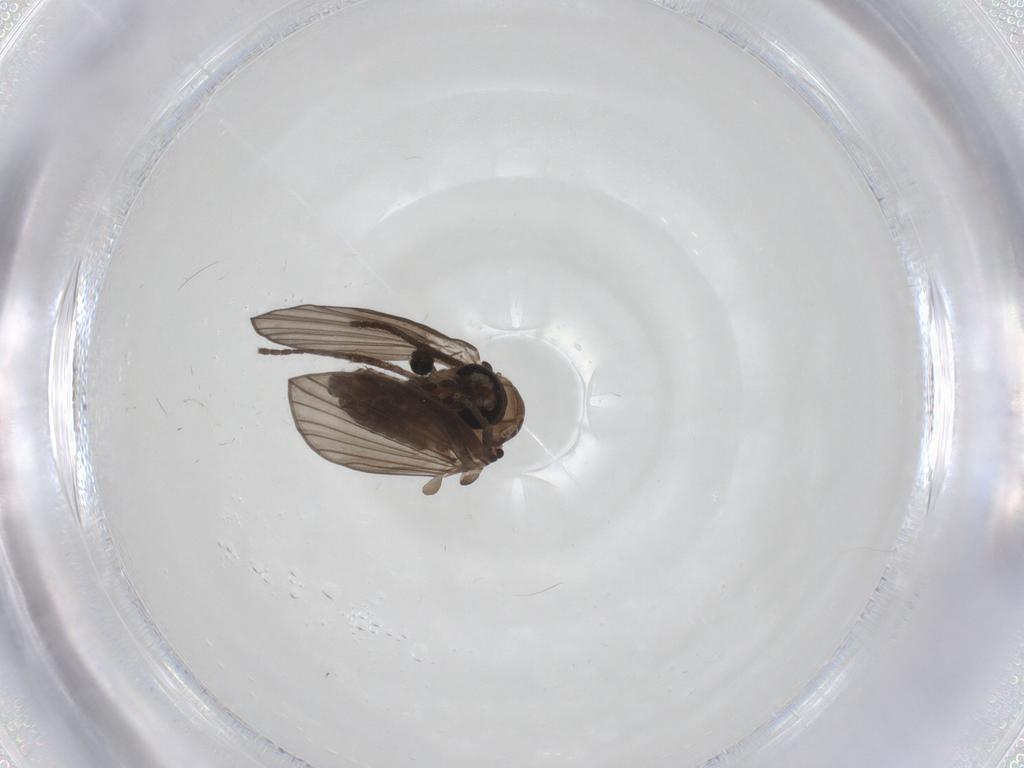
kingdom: Animalia
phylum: Arthropoda
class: Insecta
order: Diptera
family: Psychodidae
